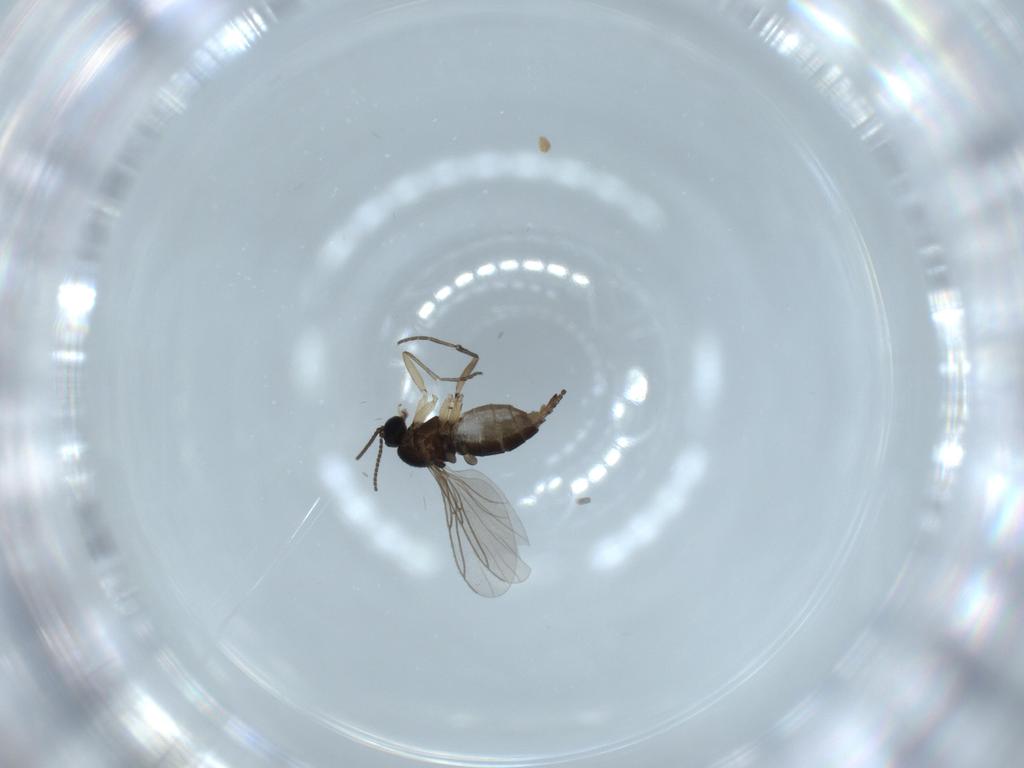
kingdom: Animalia
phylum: Arthropoda
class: Insecta
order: Diptera
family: Sciaridae
